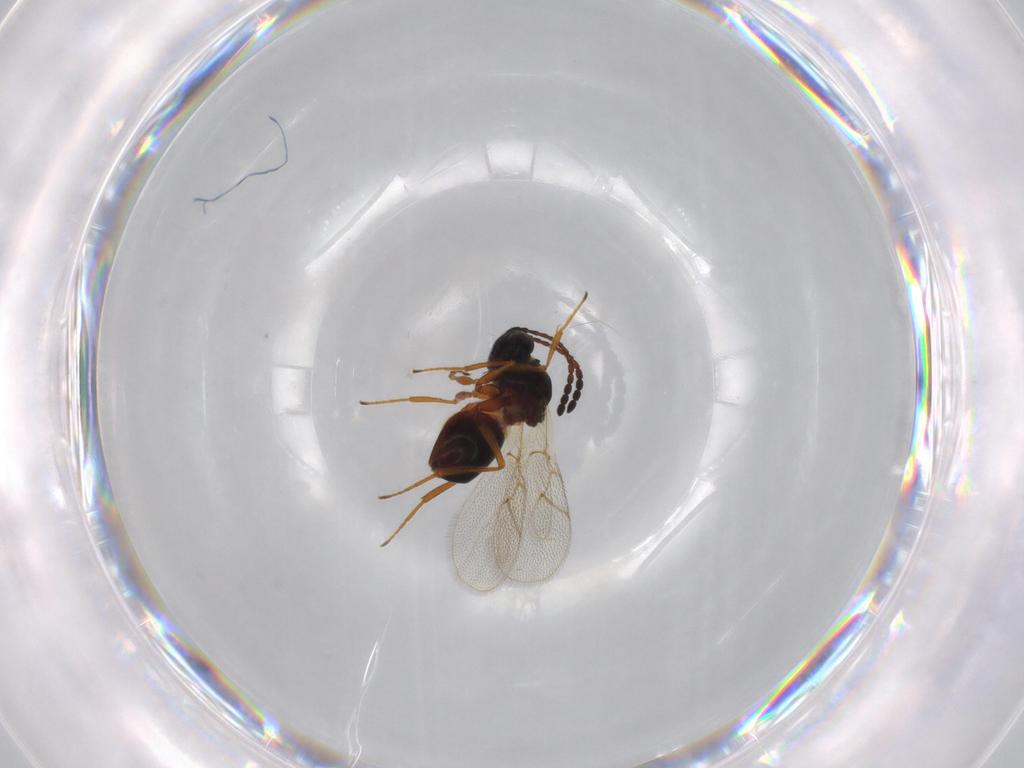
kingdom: Animalia
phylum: Arthropoda
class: Insecta
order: Hymenoptera
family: Figitidae
